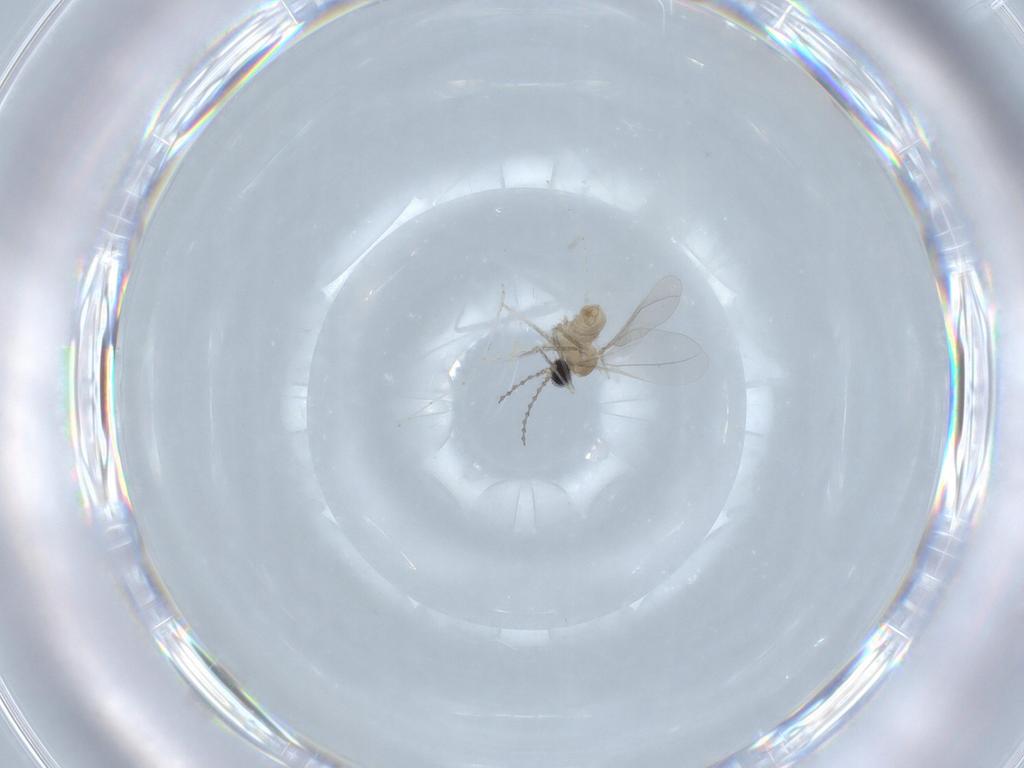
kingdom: Animalia
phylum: Arthropoda
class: Insecta
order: Diptera
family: Cecidomyiidae
